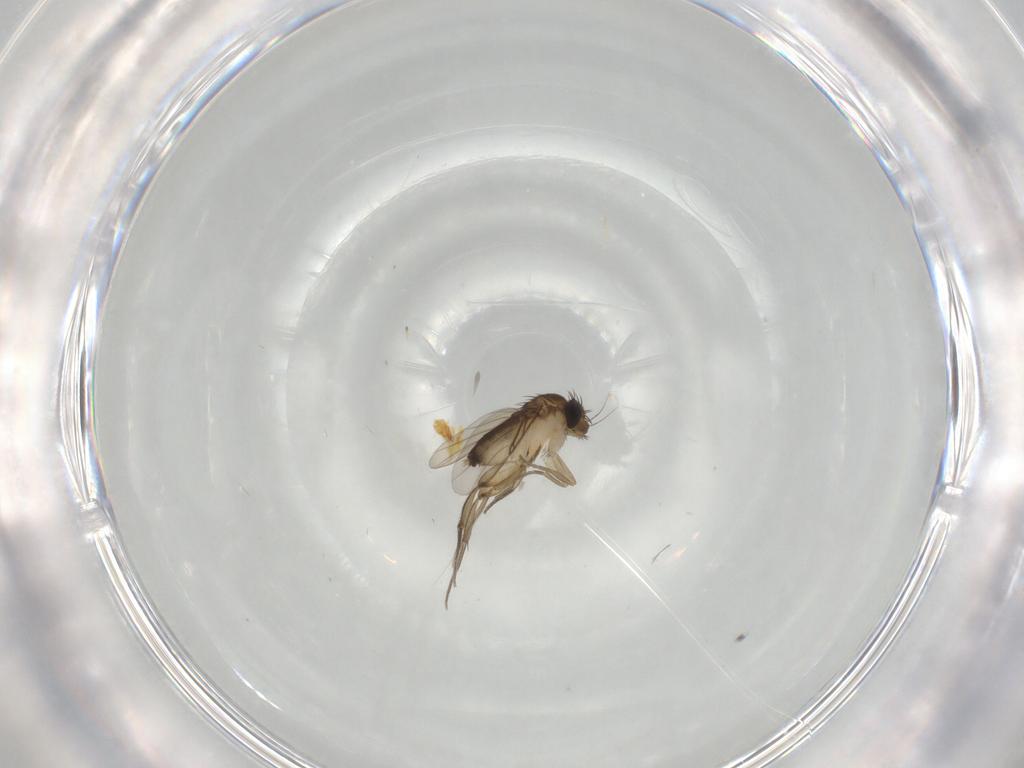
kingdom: Animalia
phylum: Arthropoda
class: Insecta
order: Diptera
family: Phoridae
